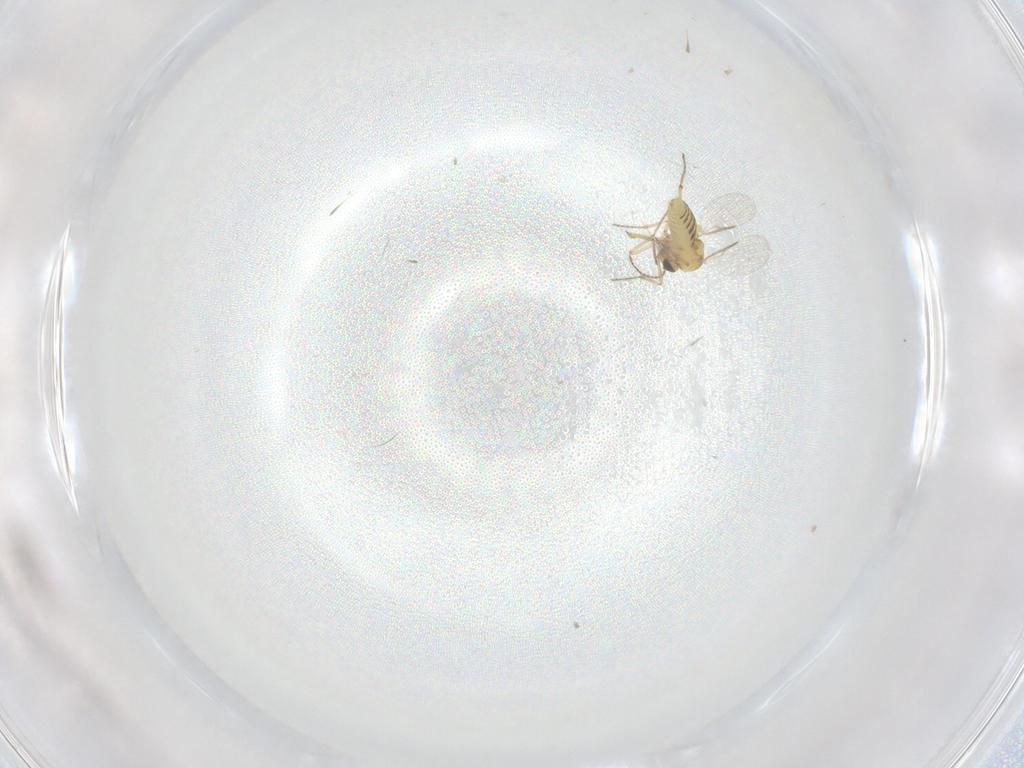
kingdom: Animalia
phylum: Arthropoda
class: Insecta
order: Diptera
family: Ceratopogonidae
